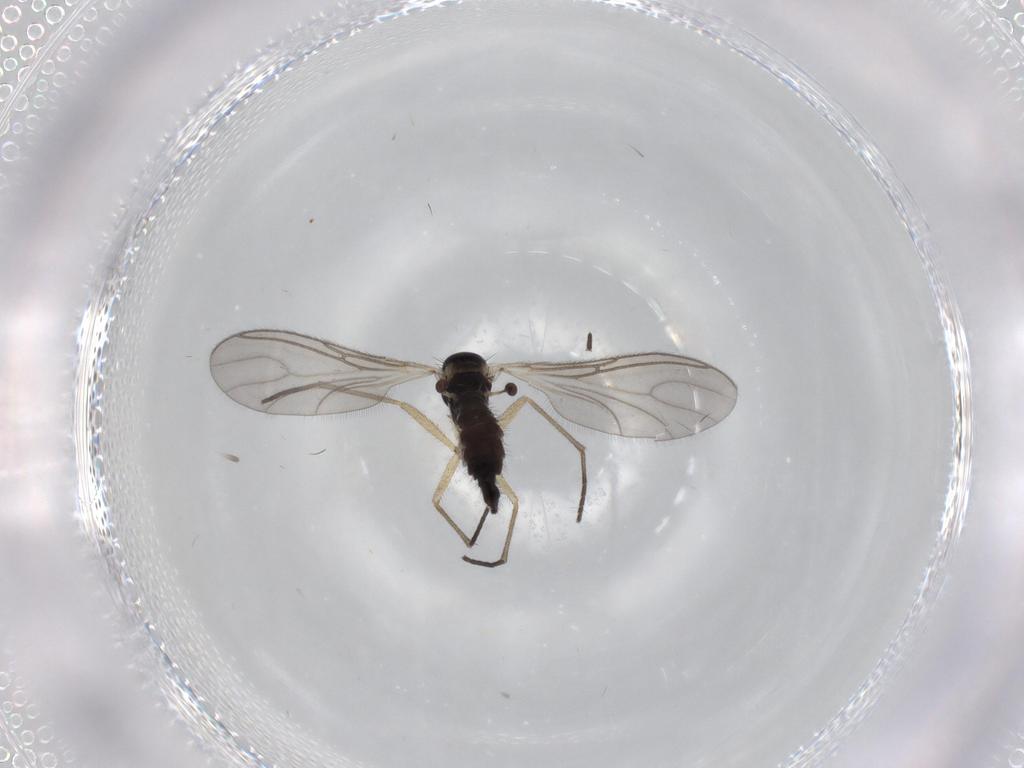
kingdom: Animalia
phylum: Arthropoda
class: Insecta
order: Diptera
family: Sciaridae
